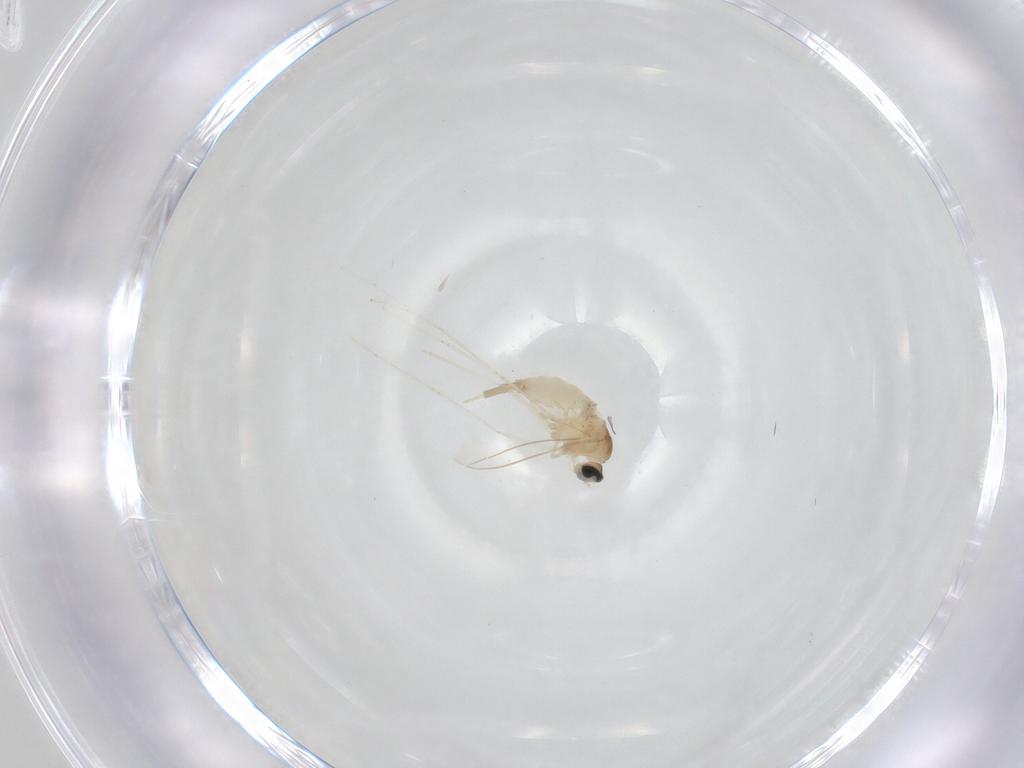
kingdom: Animalia
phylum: Arthropoda
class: Insecta
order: Diptera
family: Cecidomyiidae
